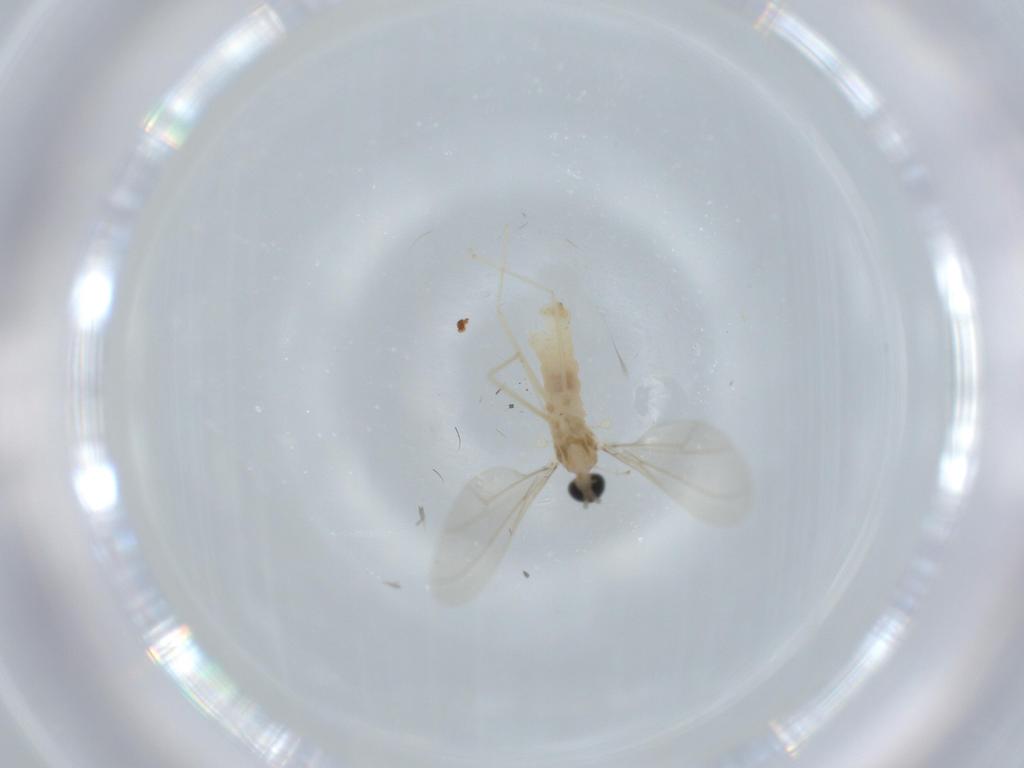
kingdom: Animalia
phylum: Arthropoda
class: Insecta
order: Diptera
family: Cecidomyiidae
